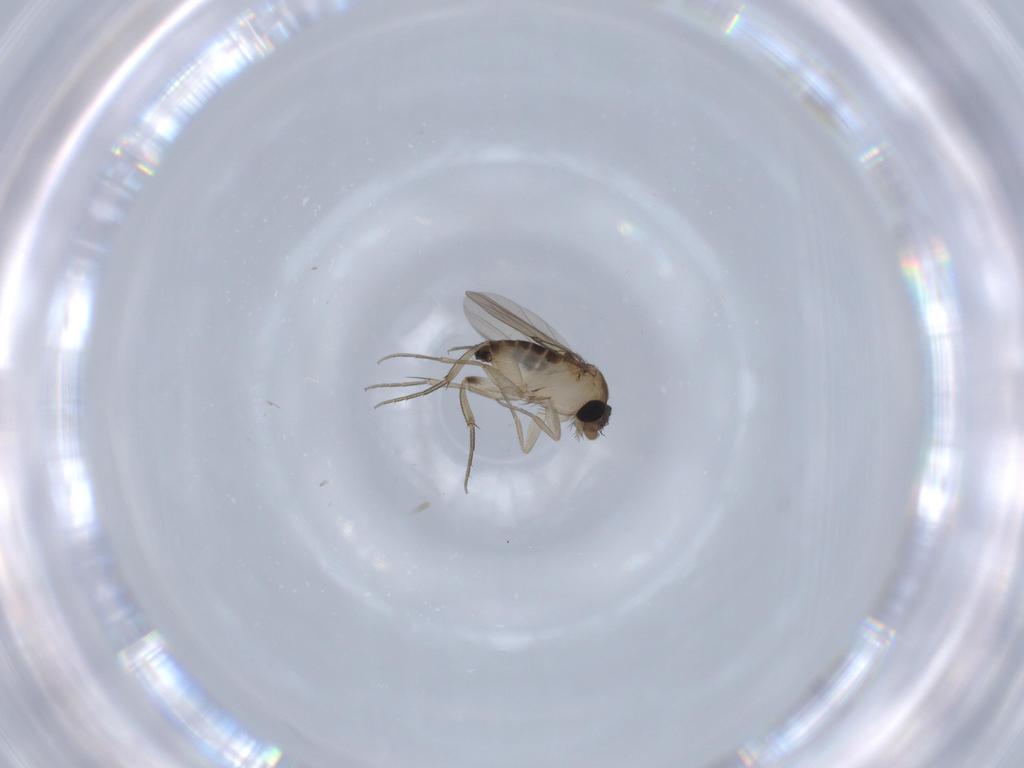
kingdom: Animalia
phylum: Arthropoda
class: Insecta
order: Diptera
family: Phoridae
